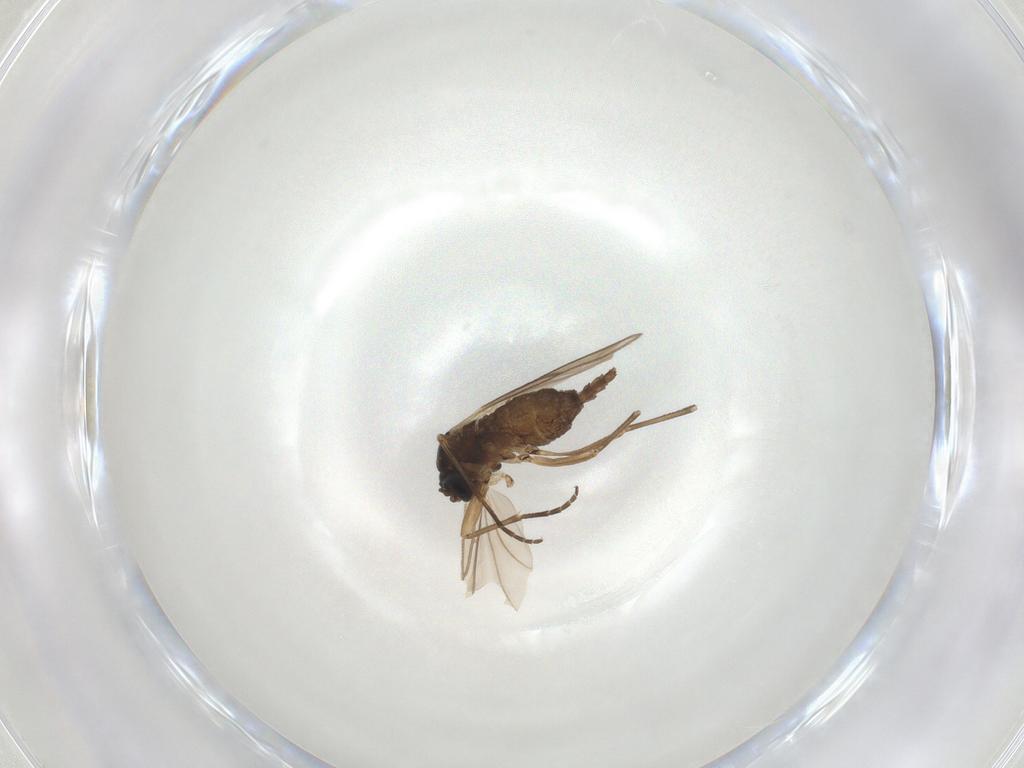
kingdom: Animalia
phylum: Arthropoda
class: Insecta
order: Diptera
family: Sciaridae
